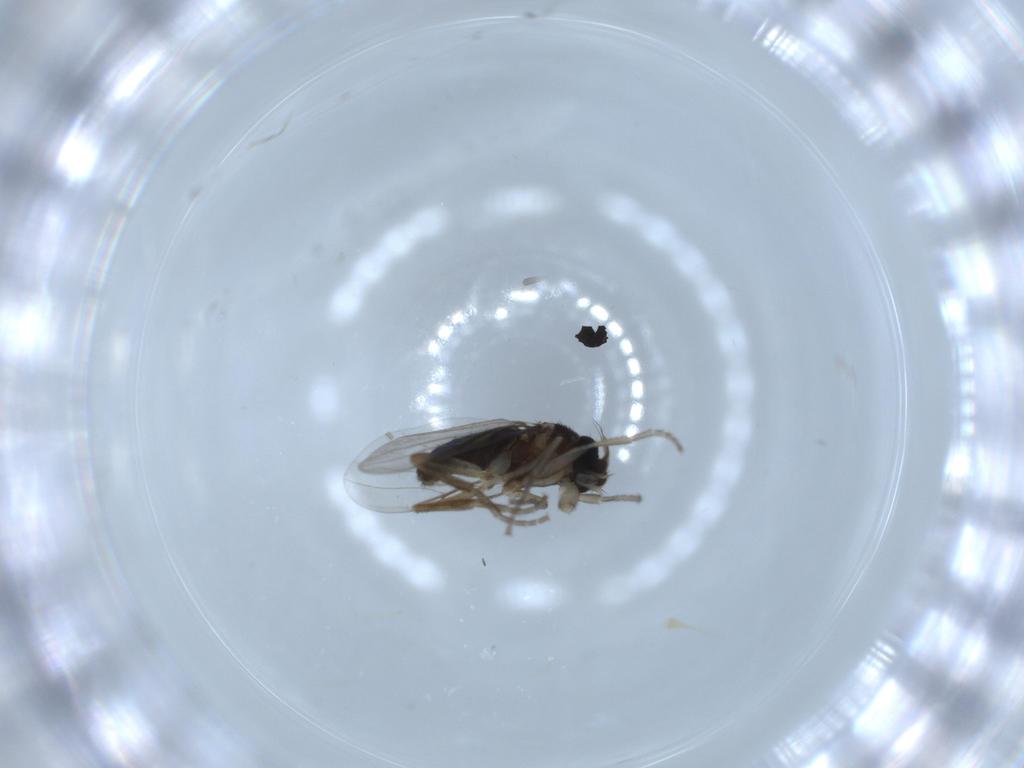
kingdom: Animalia
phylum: Arthropoda
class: Insecta
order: Diptera
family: Phoridae
